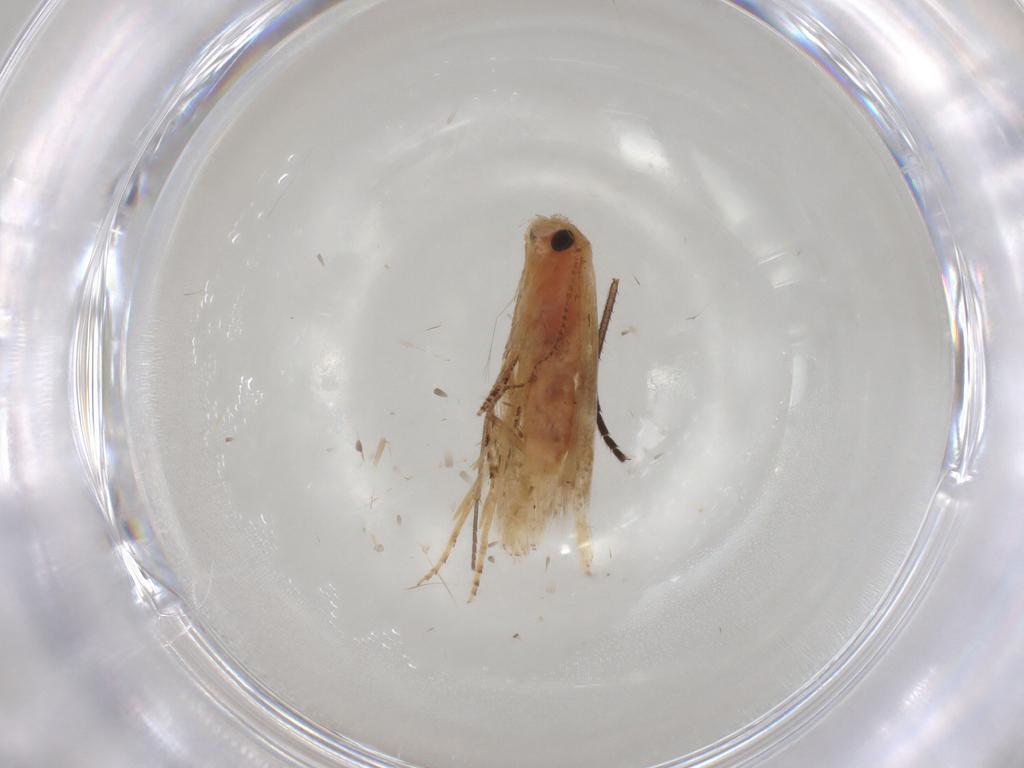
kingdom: Animalia
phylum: Arthropoda
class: Insecta
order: Lepidoptera
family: Bucculatricidae
